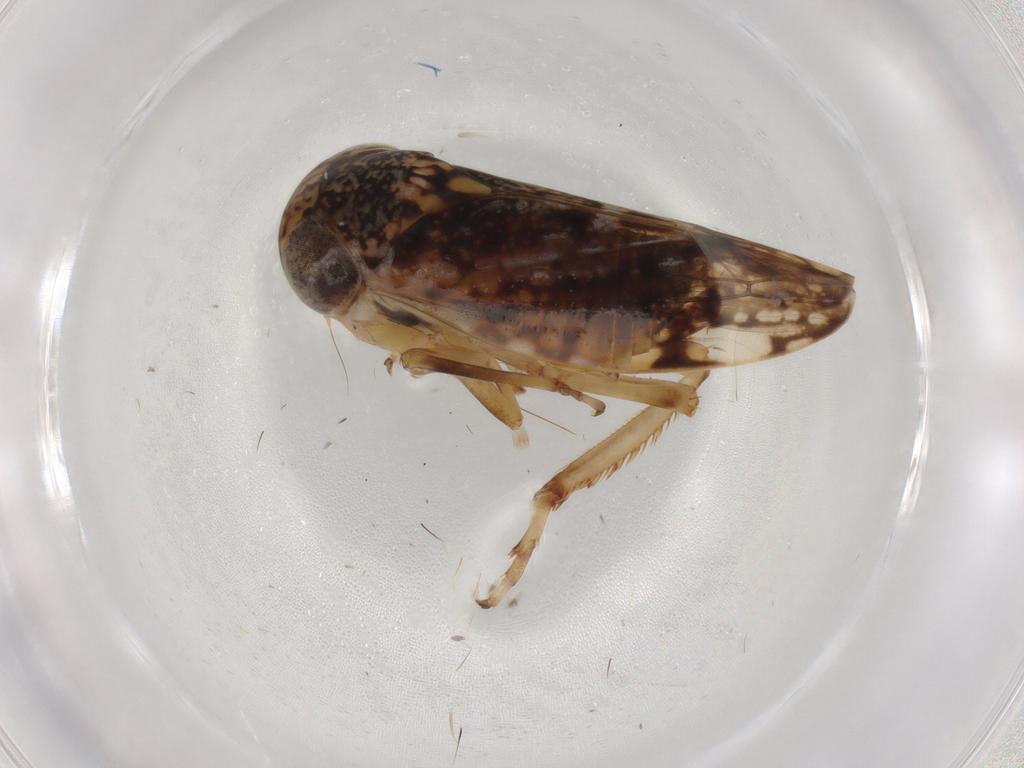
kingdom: Animalia
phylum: Arthropoda
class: Insecta
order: Hemiptera
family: Cicadellidae
